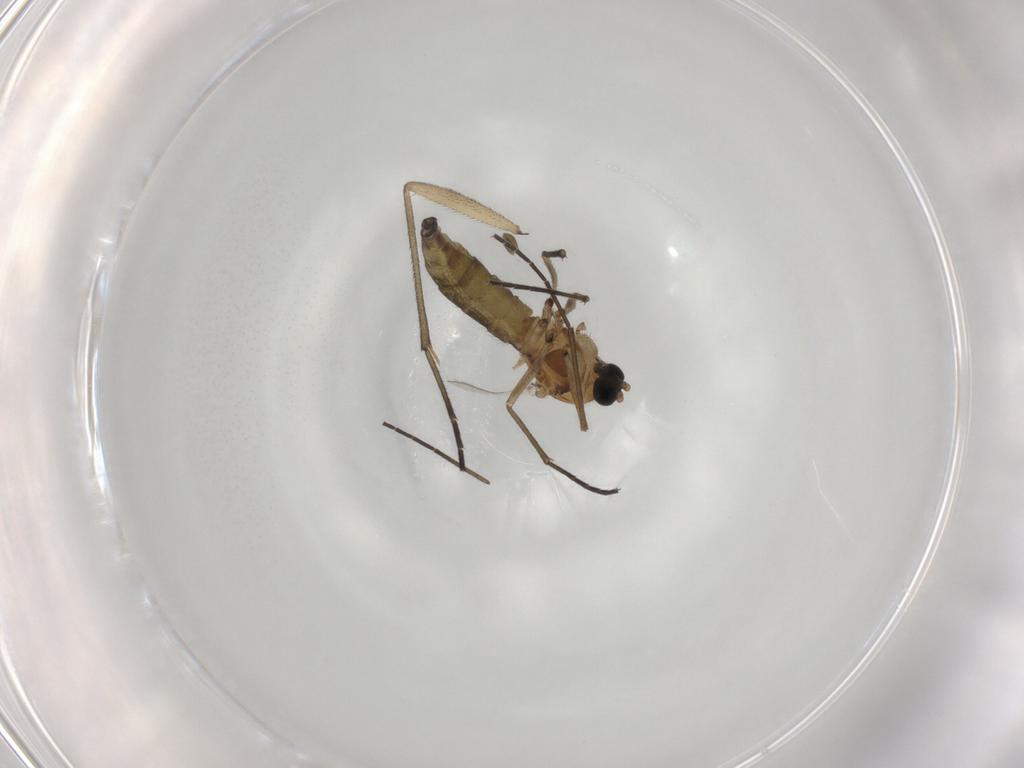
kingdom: Animalia
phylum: Arthropoda
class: Insecta
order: Diptera
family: Sciaridae
